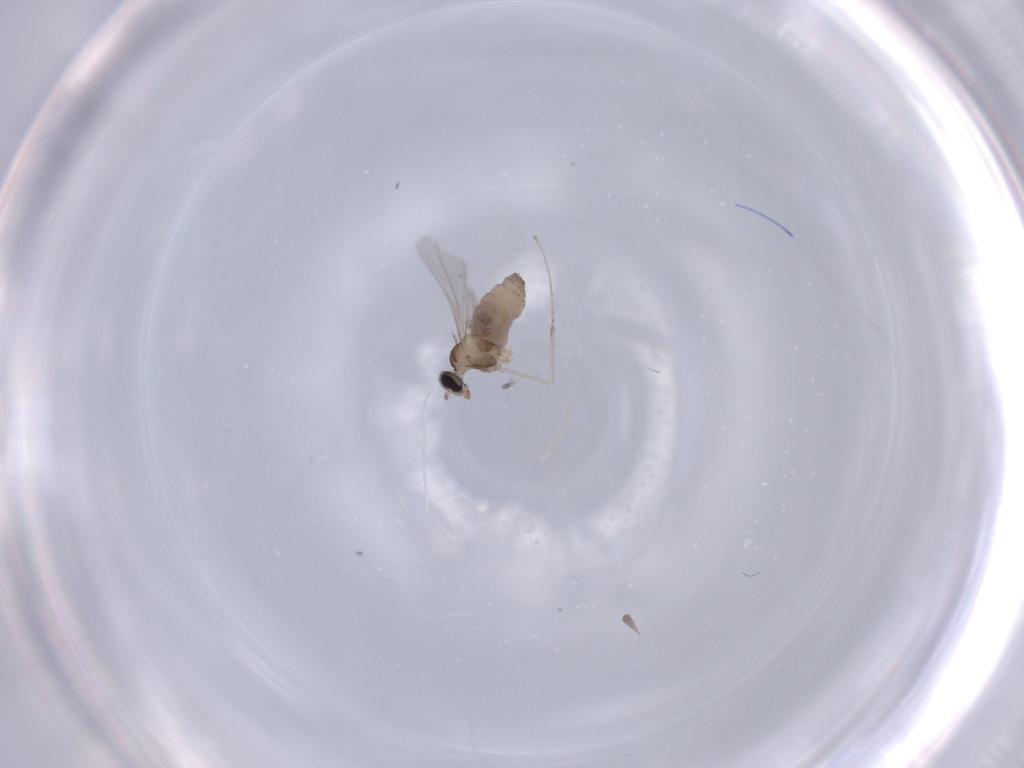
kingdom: Animalia
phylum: Arthropoda
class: Insecta
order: Diptera
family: Cecidomyiidae
